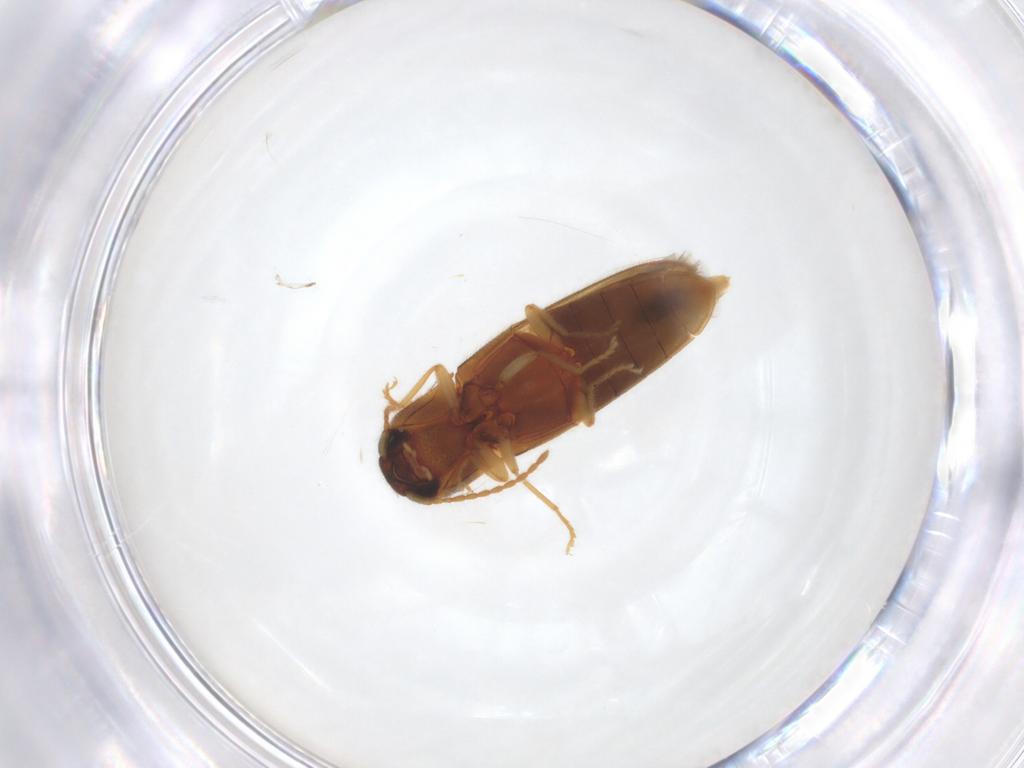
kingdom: Animalia
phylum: Arthropoda
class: Insecta
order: Coleoptera
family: Elateridae
